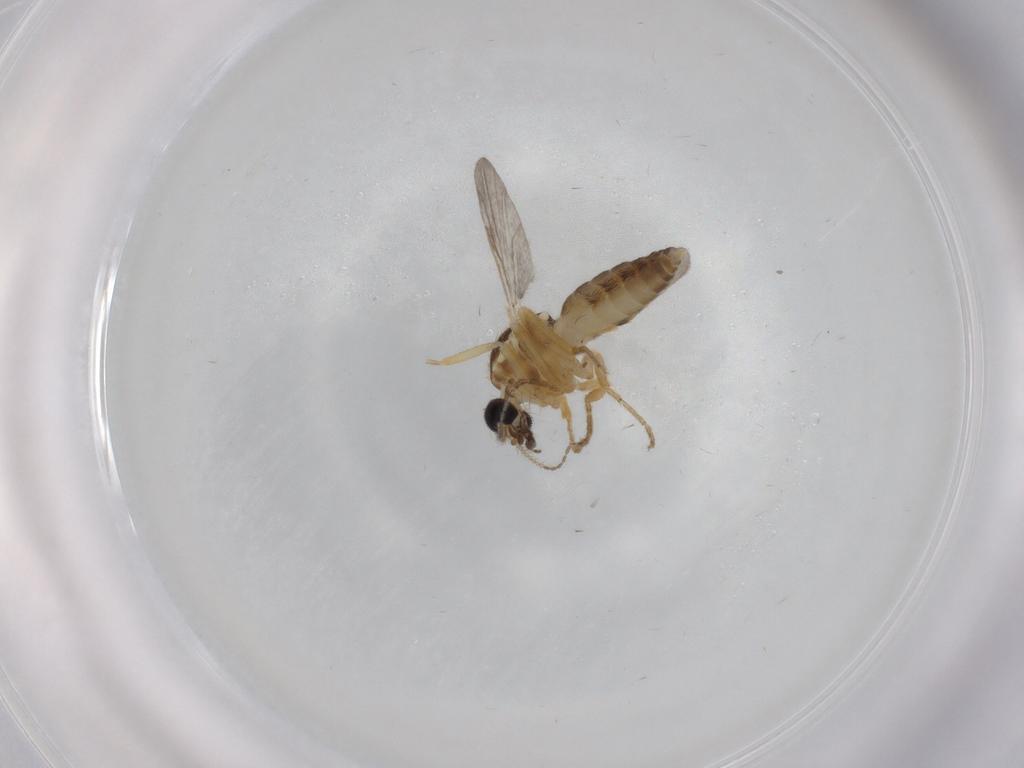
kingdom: Animalia
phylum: Arthropoda
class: Insecta
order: Diptera
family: Ceratopogonidae
